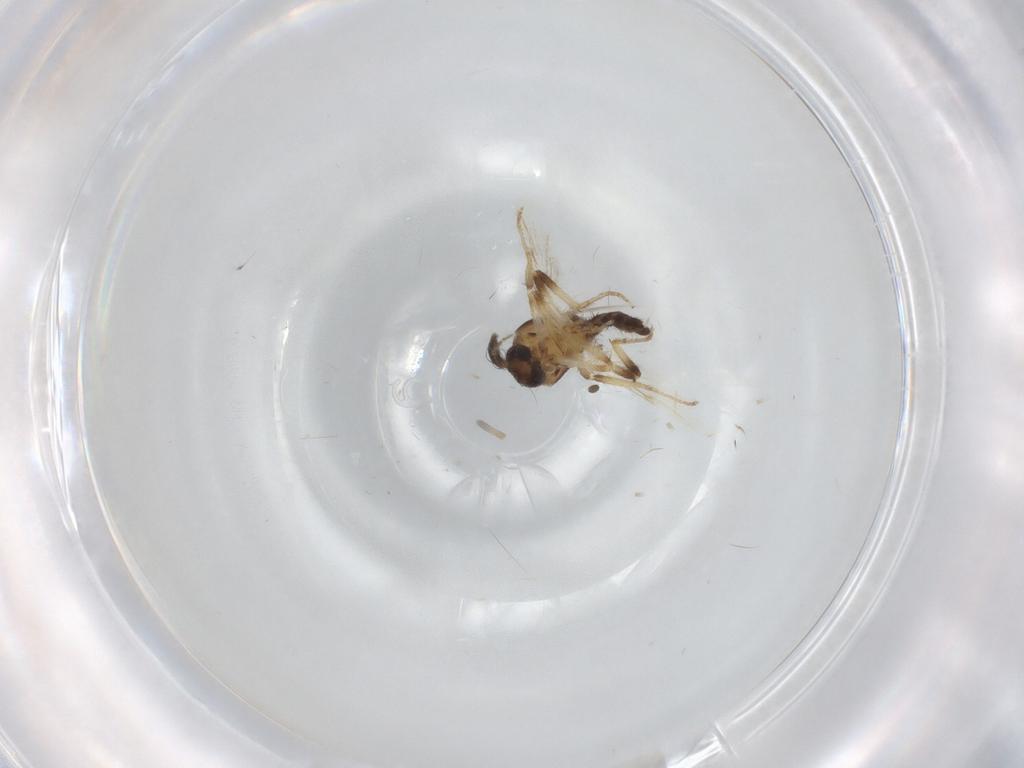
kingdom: Animalia
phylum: Arthropoda
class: Insecta
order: Diptera
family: Ceratopogonidae
